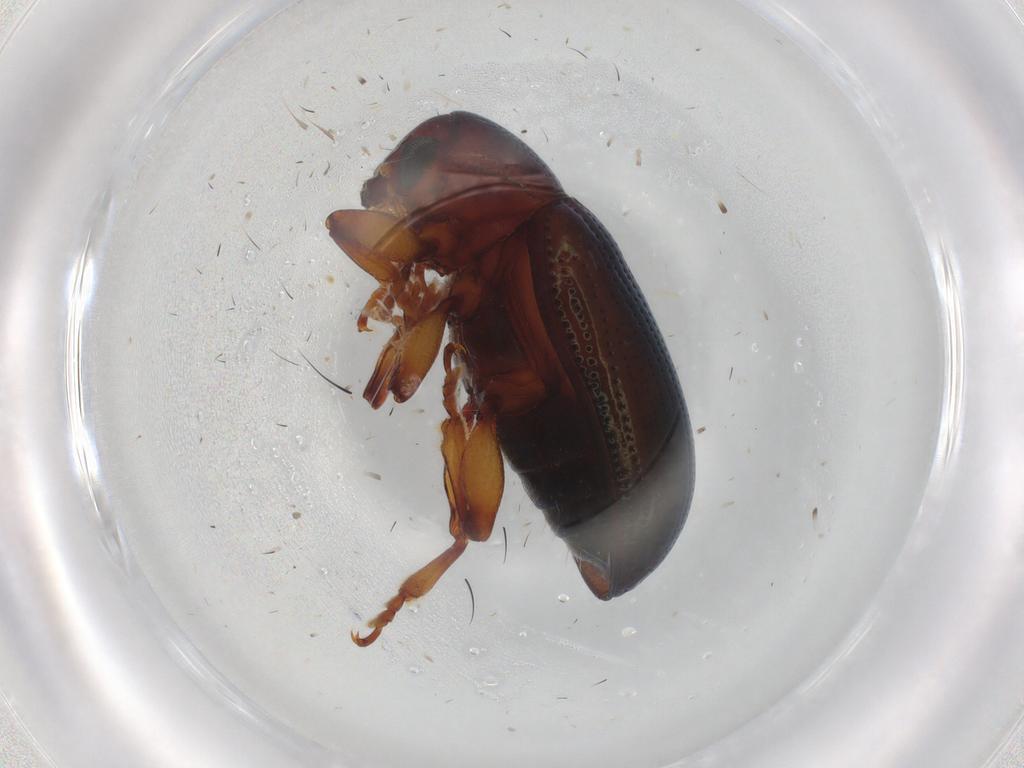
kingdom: Animalia
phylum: Arthropoda
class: Insecta
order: Coleoptera
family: Chrysomelidae
